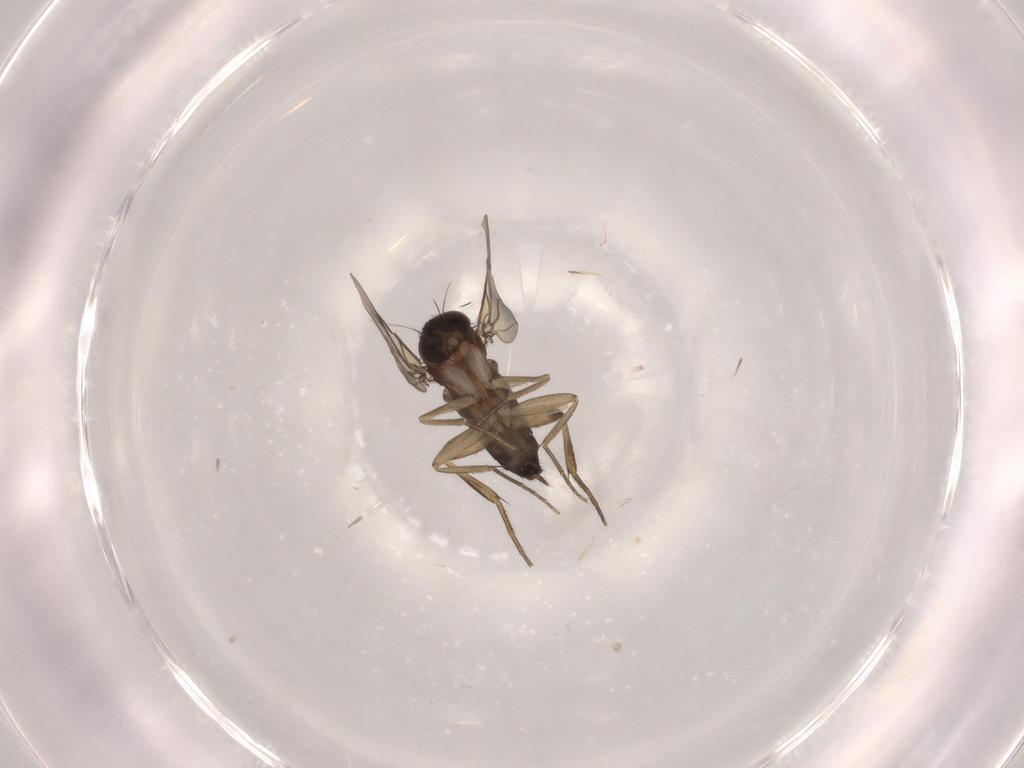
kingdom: Animalia
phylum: Arthropoda
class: Insecta
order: Diptera
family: Phoridae
